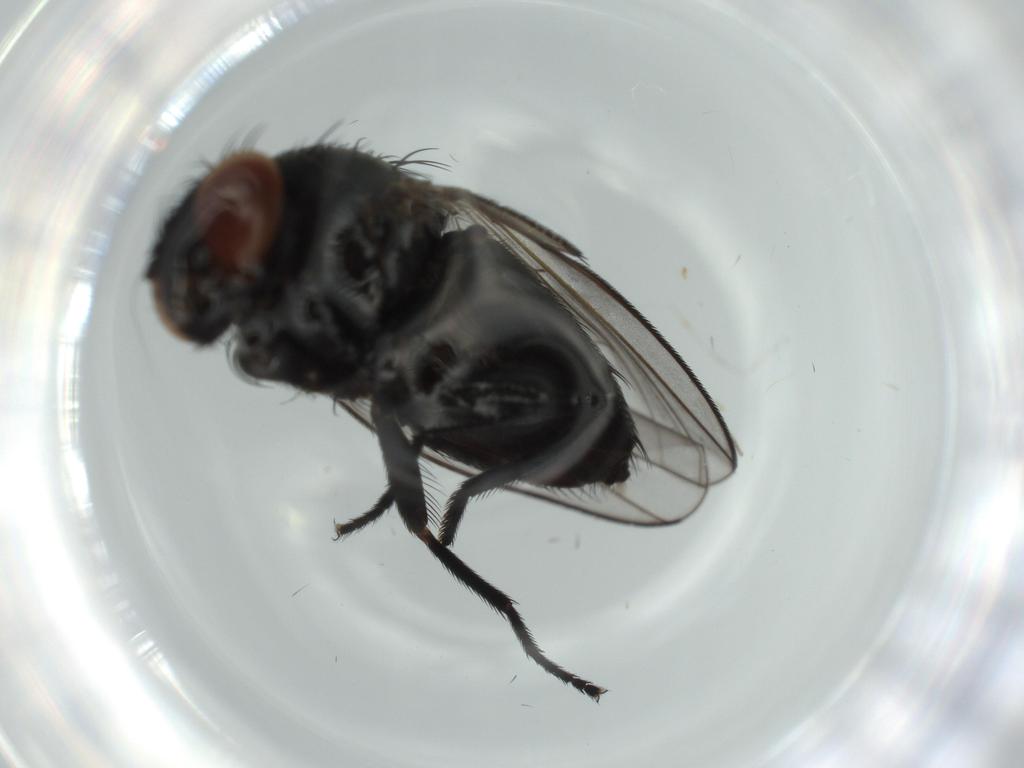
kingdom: Animalia
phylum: Arthropoda
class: Insecta
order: Diptera
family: Milichiidae
